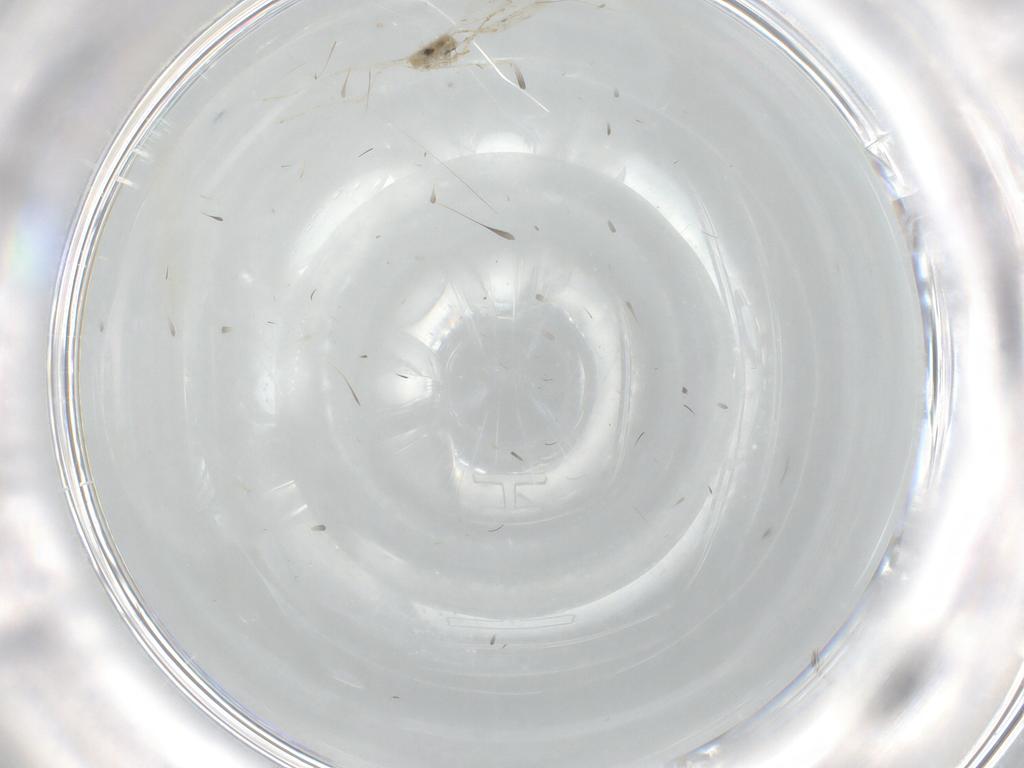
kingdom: Animalia
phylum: Arthropoda
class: Insecta
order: Diptera
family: Cecidomyiidae
